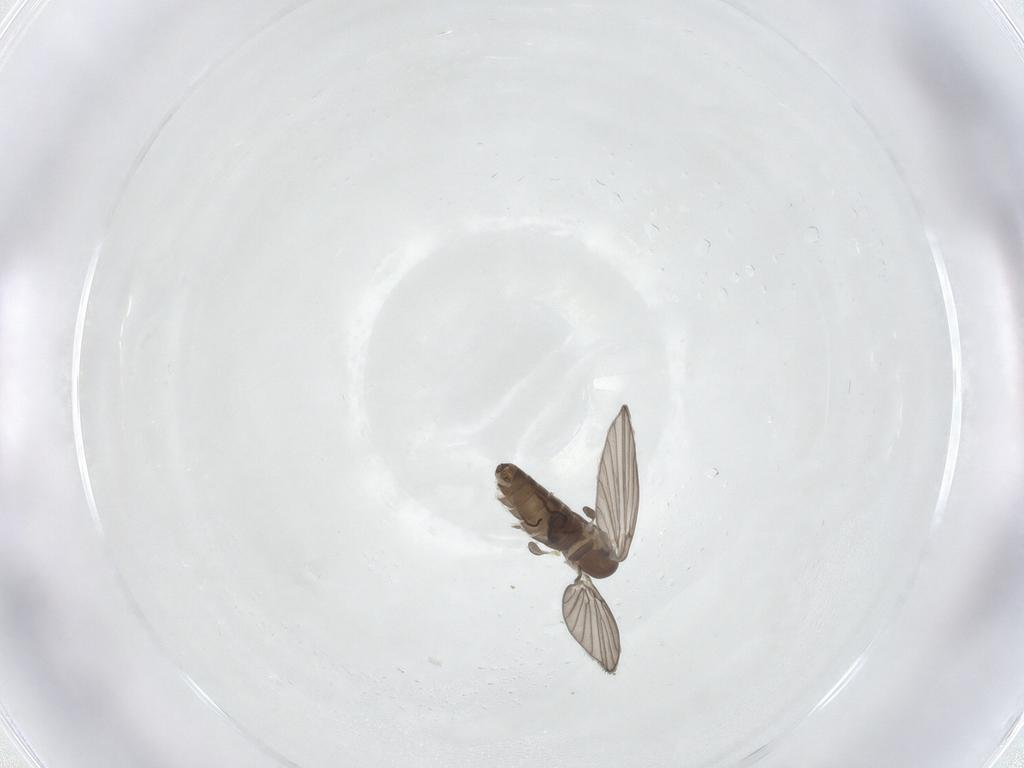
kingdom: Animalia
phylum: Arthropoda
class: Insecta
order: Diptera
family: Psychodidae
